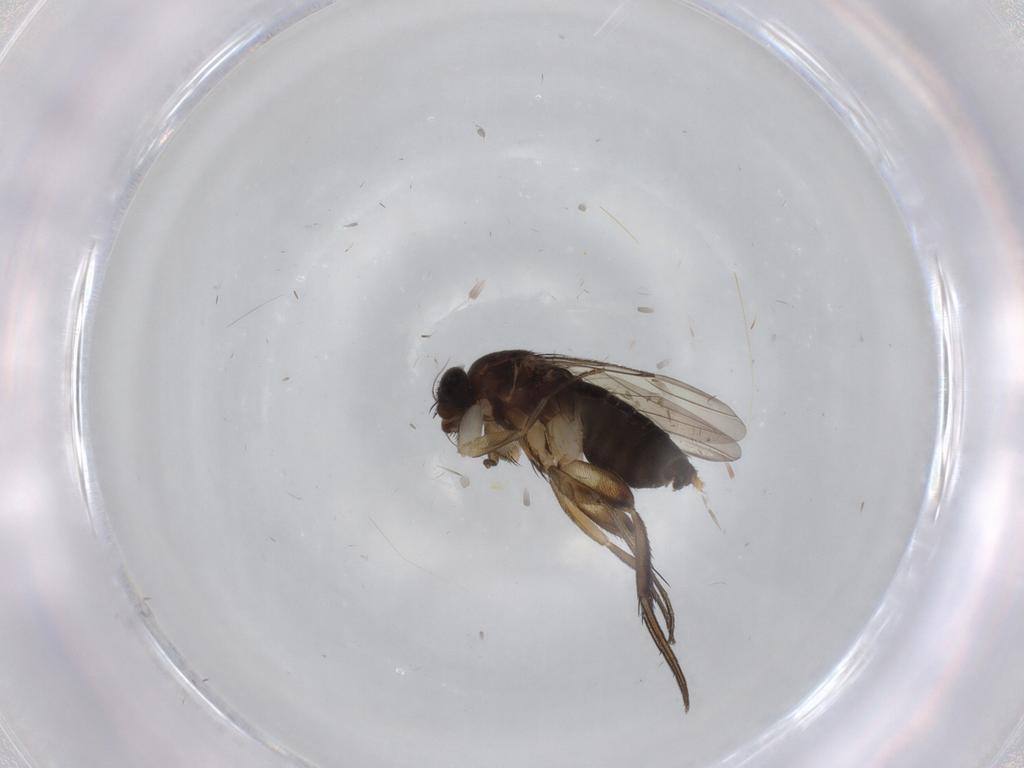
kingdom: Animalia
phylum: Arthropoda
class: Insecta
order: Diptera
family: Phoridae
